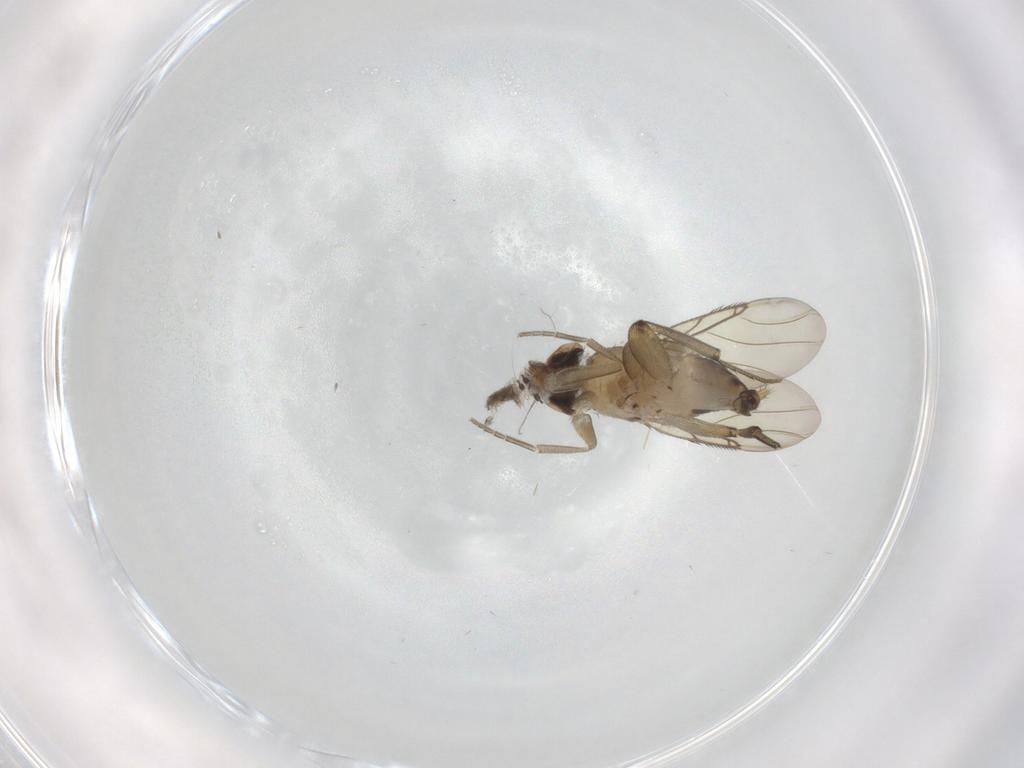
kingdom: Animalia
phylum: Arthropoda
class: Insecta
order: Diptera
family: Phoridae
